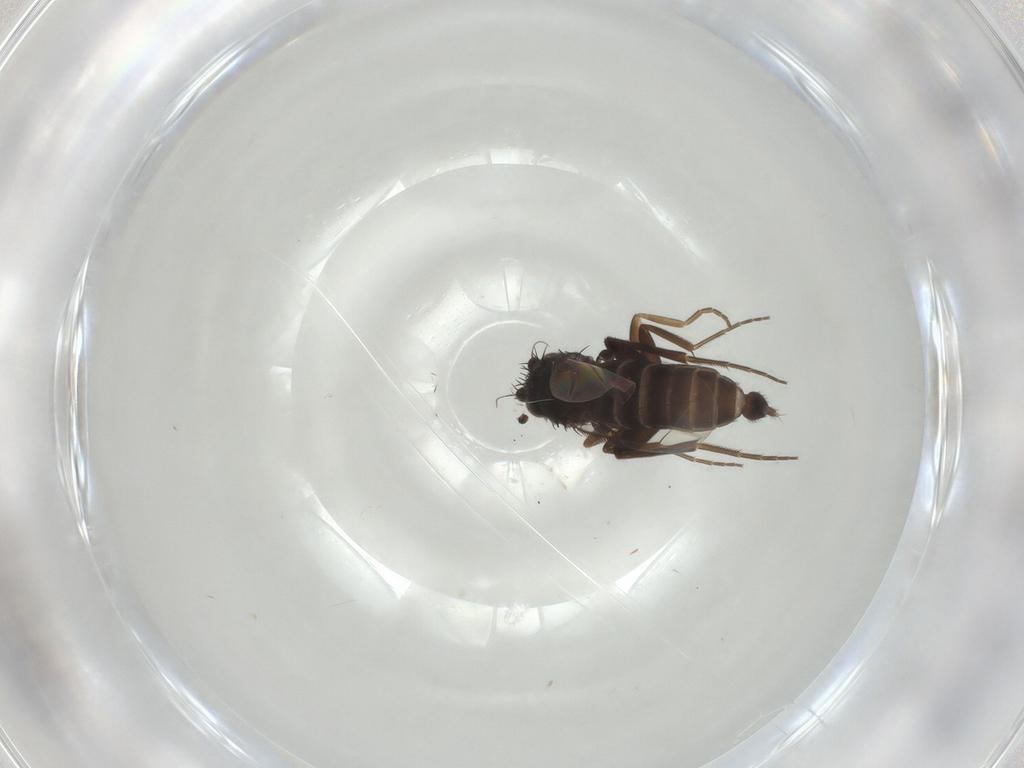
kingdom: Animalia
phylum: Arthropoda
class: Insecta
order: Diptera
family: Phoridae
